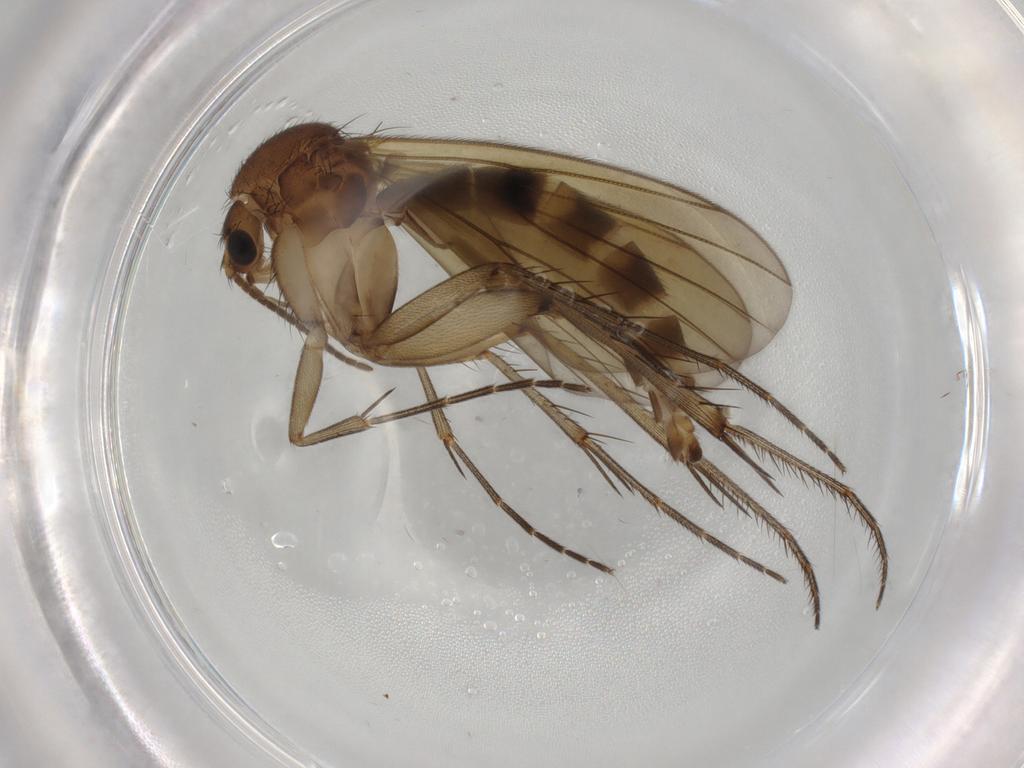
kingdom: Animalia
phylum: Arthropoda
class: Insecta
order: Diptera
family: Mycetophilidae
